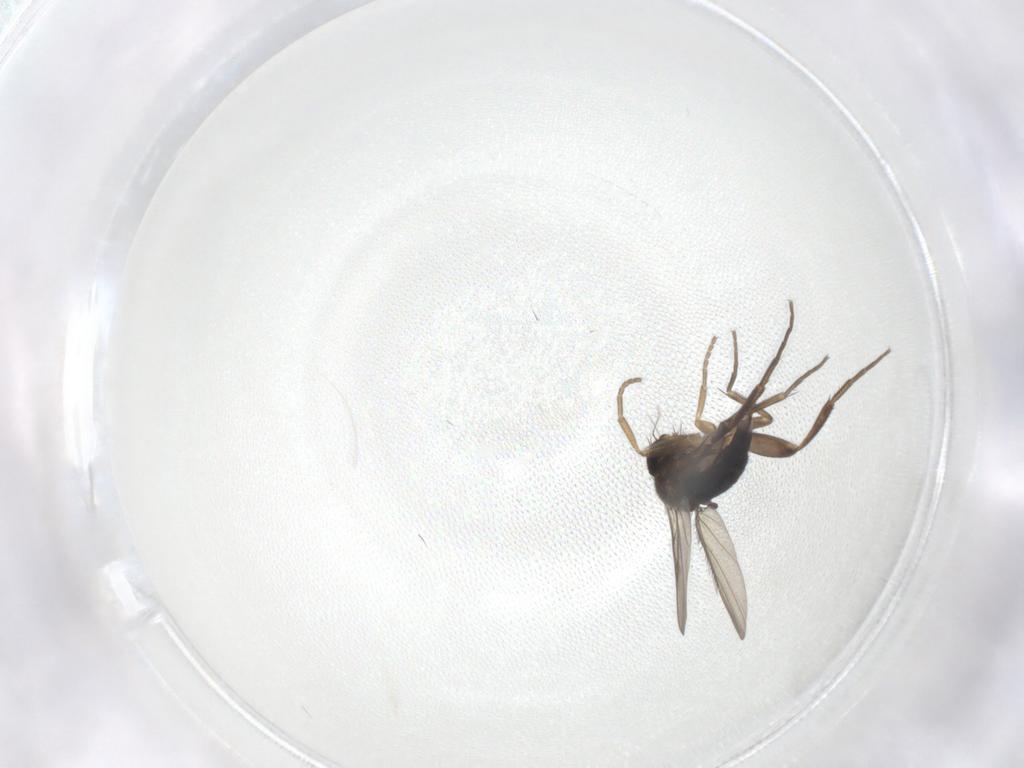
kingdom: Animalia
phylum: Arthropoda
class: Insecta
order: Diptera
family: Phoridae
